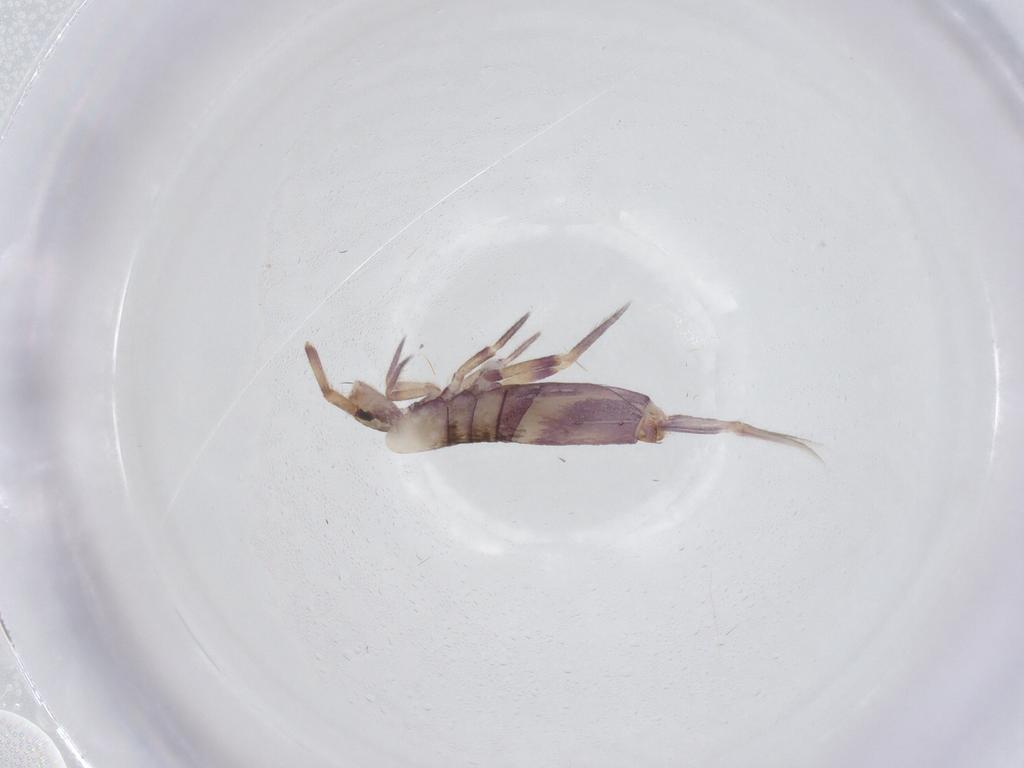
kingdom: Animalia
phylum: Arthropoda
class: Collembola
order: Entomobryomorpha
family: Entomobryidae
